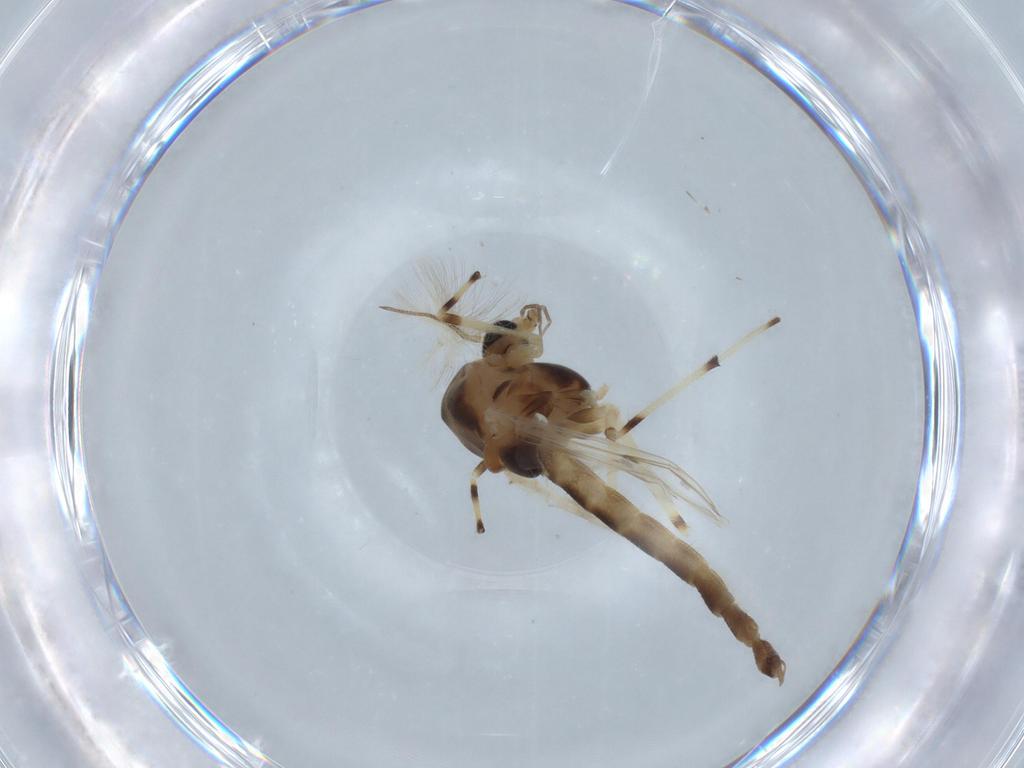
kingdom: Animalia
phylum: Arthropoda
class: Insecta
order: Diptera
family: Chironomidae
